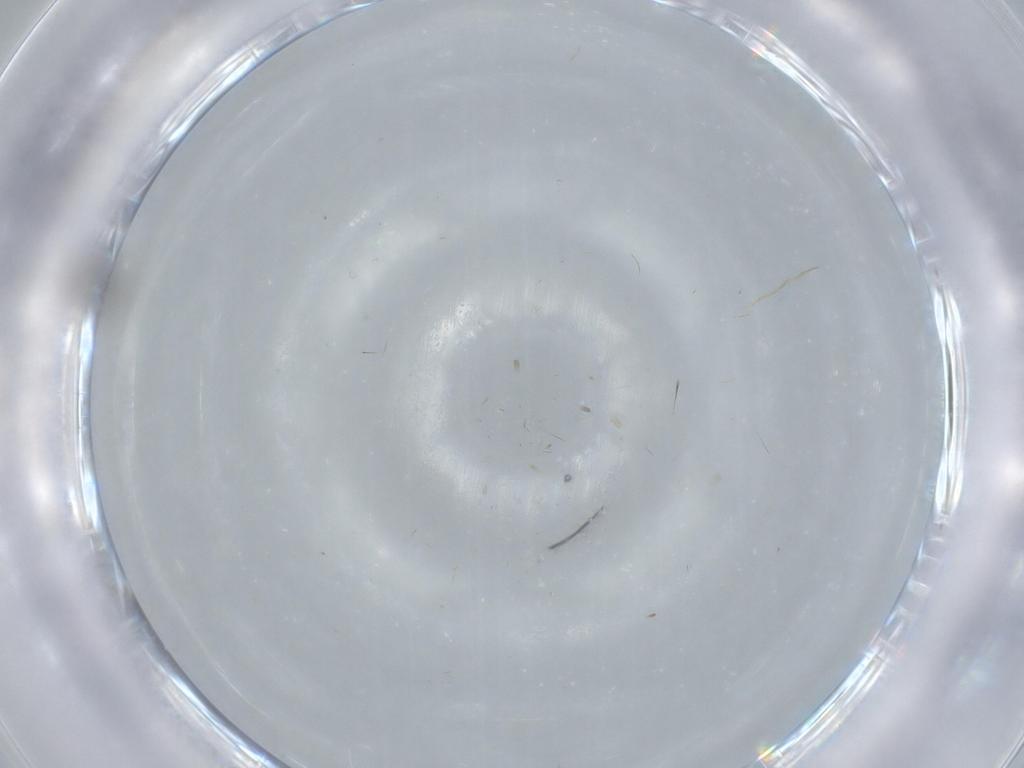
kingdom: Animalia
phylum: Arthropoda
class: Insecta
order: Hymenoptera
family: Scelionidae
